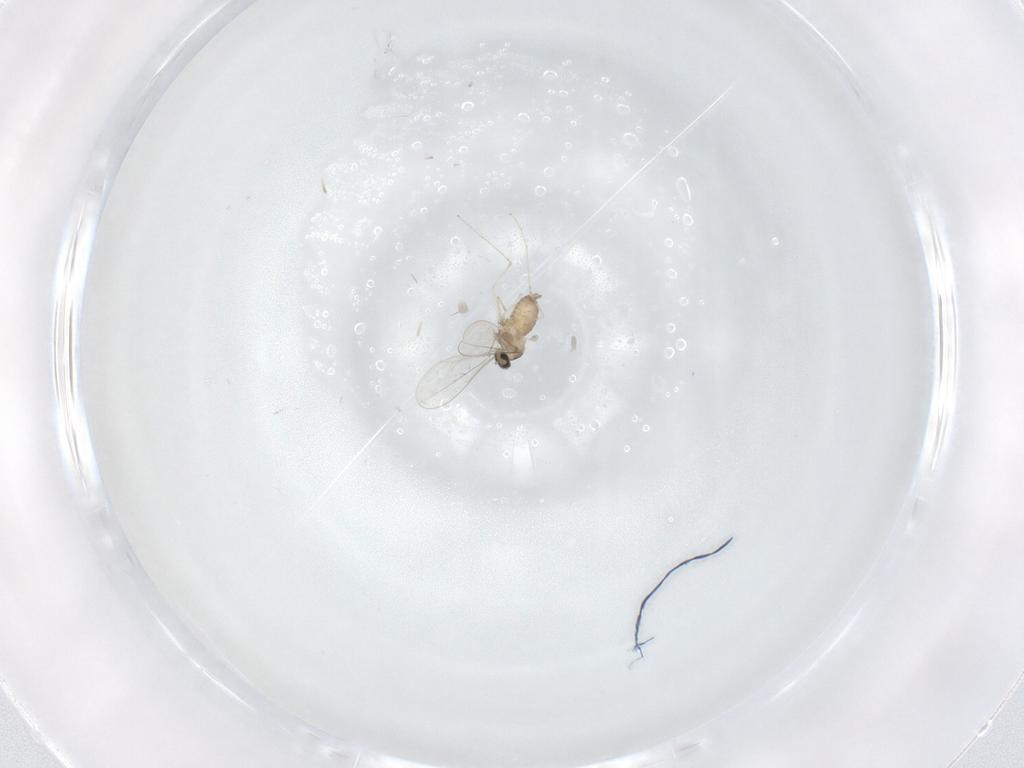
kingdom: Animalia
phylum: Arthropoda
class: Insecta
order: Diptera
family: Cecidomyiidae
